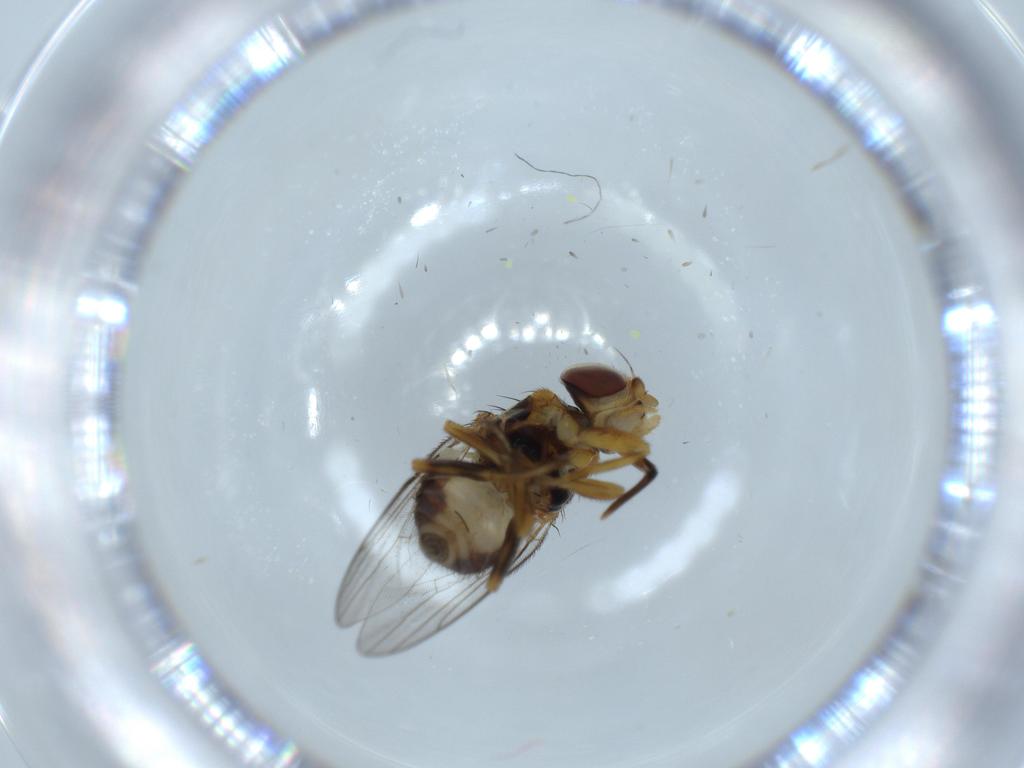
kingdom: Animalia
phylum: Arthropoda
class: Insecta
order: Diptera
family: Chloropidae
